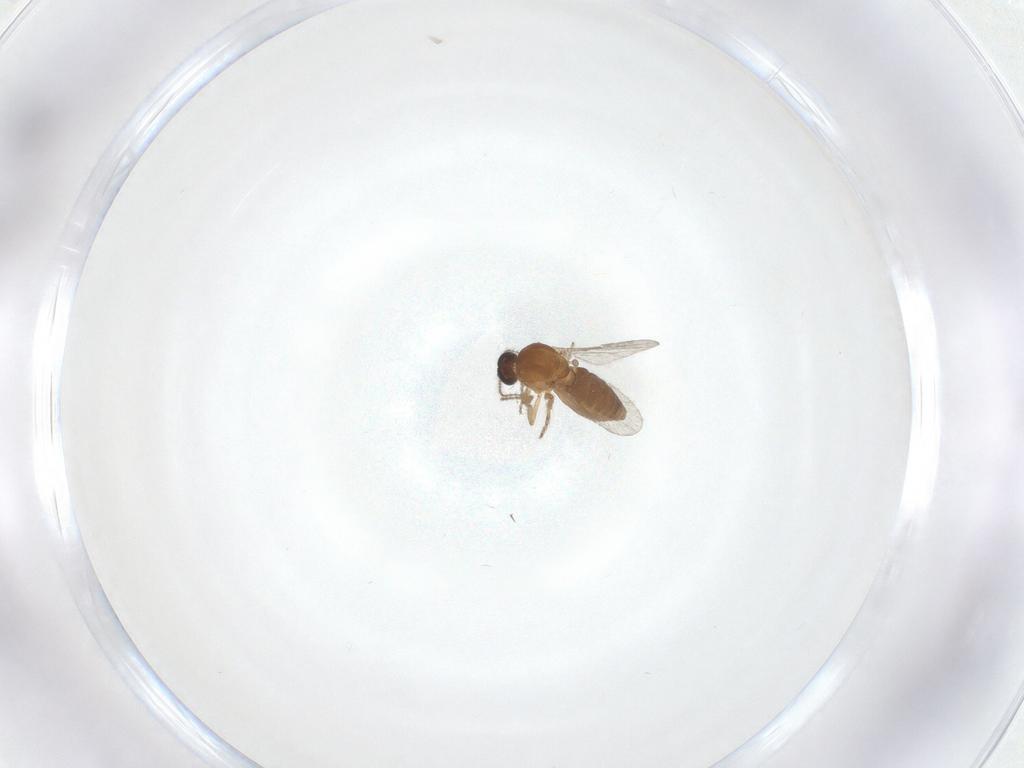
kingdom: Animalia
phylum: Arthropoda
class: Insecta
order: Diptera
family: Ceratopogonidae
